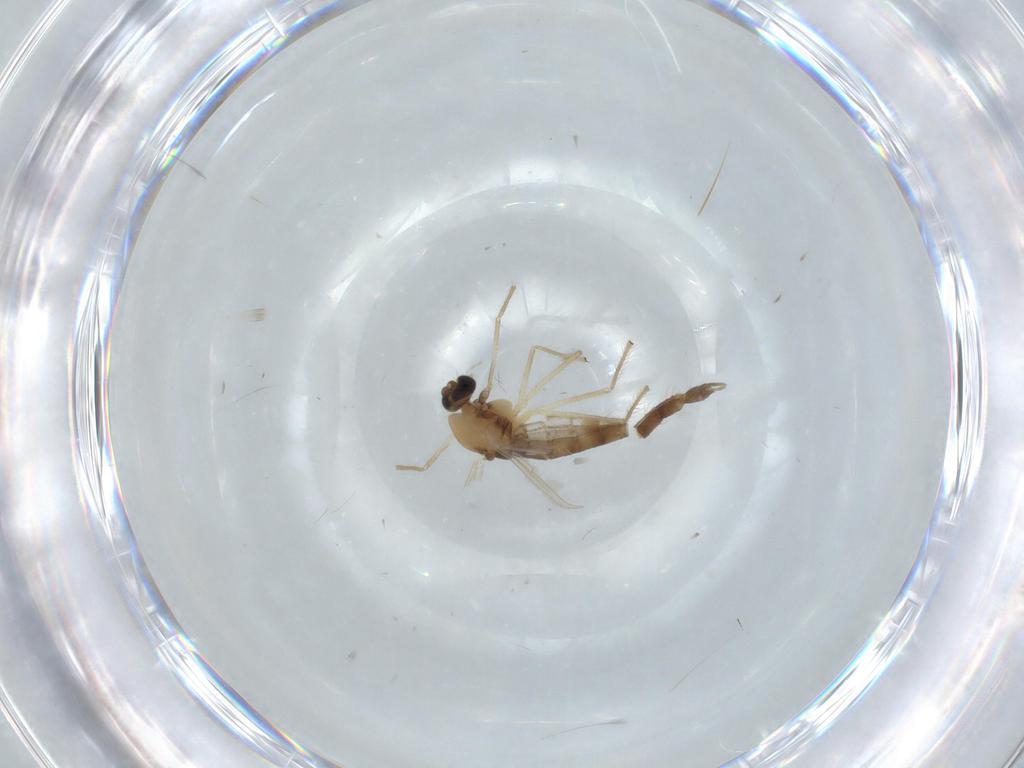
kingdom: Animalia
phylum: Arthropoda
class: Insecta
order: Diptera
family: Chironomidae
